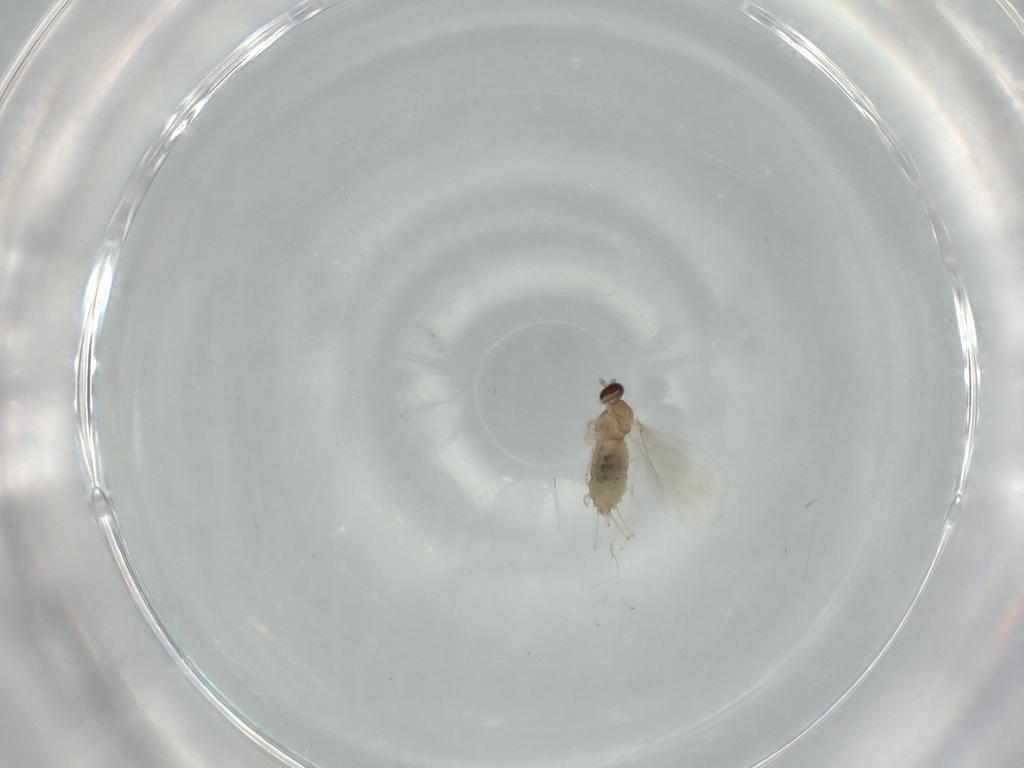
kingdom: Animalia
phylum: Arthropoda
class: Insecta
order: Diptera
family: Cecidomyiidae
